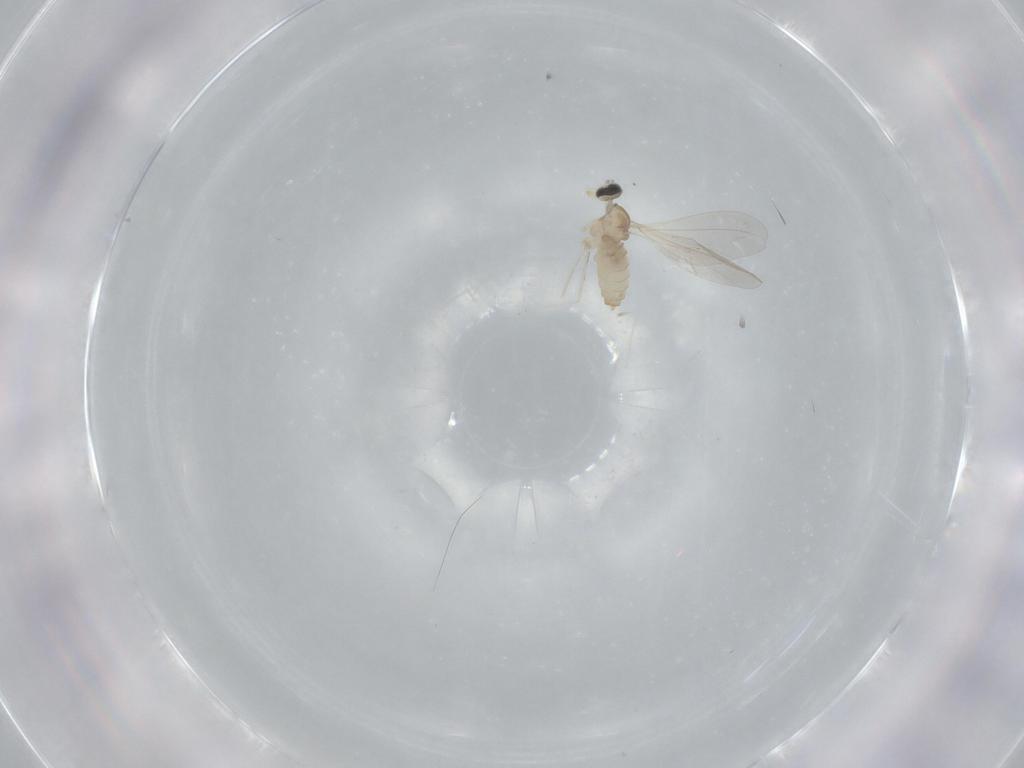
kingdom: Animalia
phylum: Arthropoda
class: Insecta
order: Diptera
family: Cecidomyiidae
